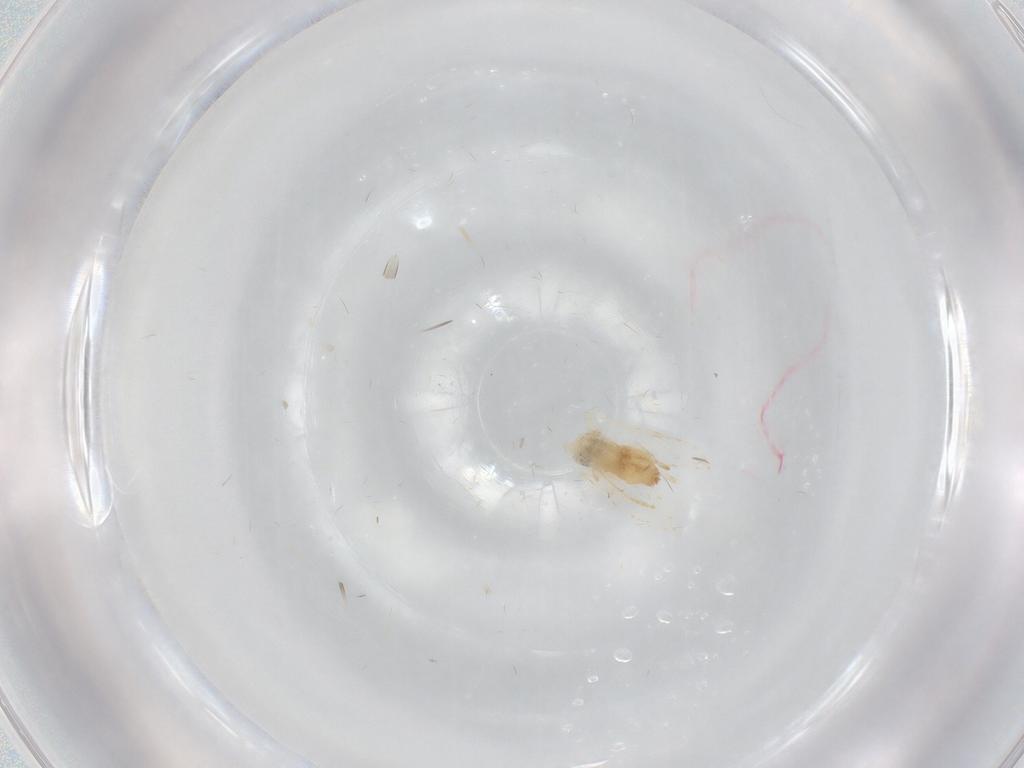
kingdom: Animalia
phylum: Arthropoda
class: Insecta
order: Diptera
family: Psychodidae
